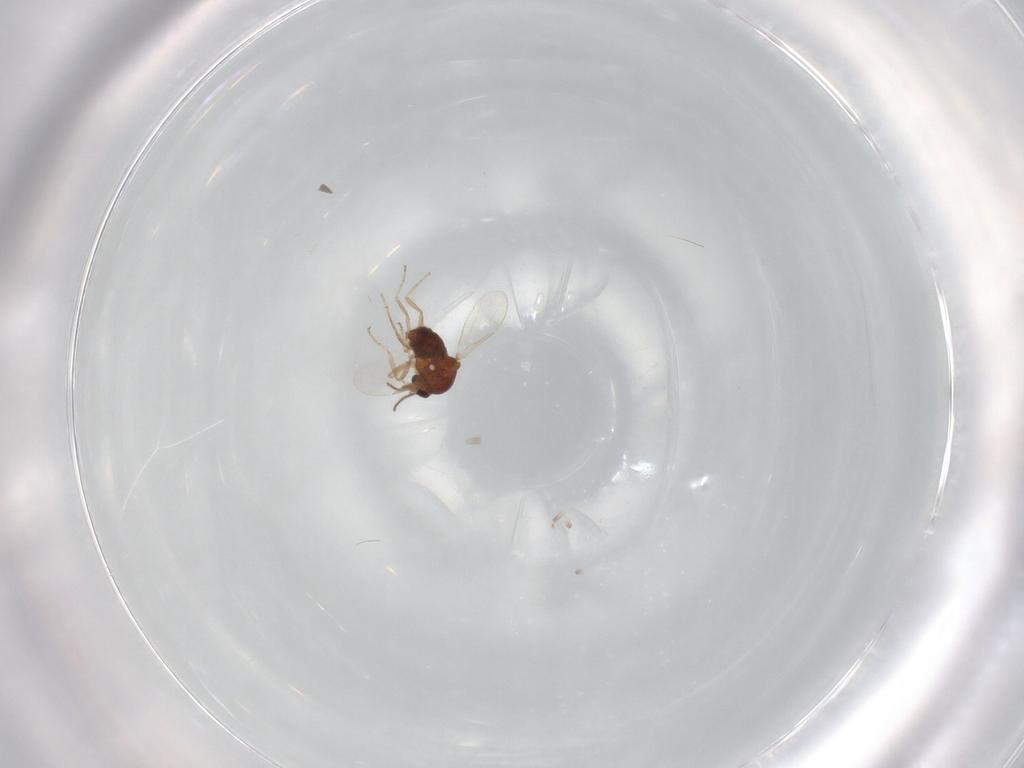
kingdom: Animalia
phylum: Arthropoda
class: Insecta
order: Diptera
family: Ceratopogonidae
